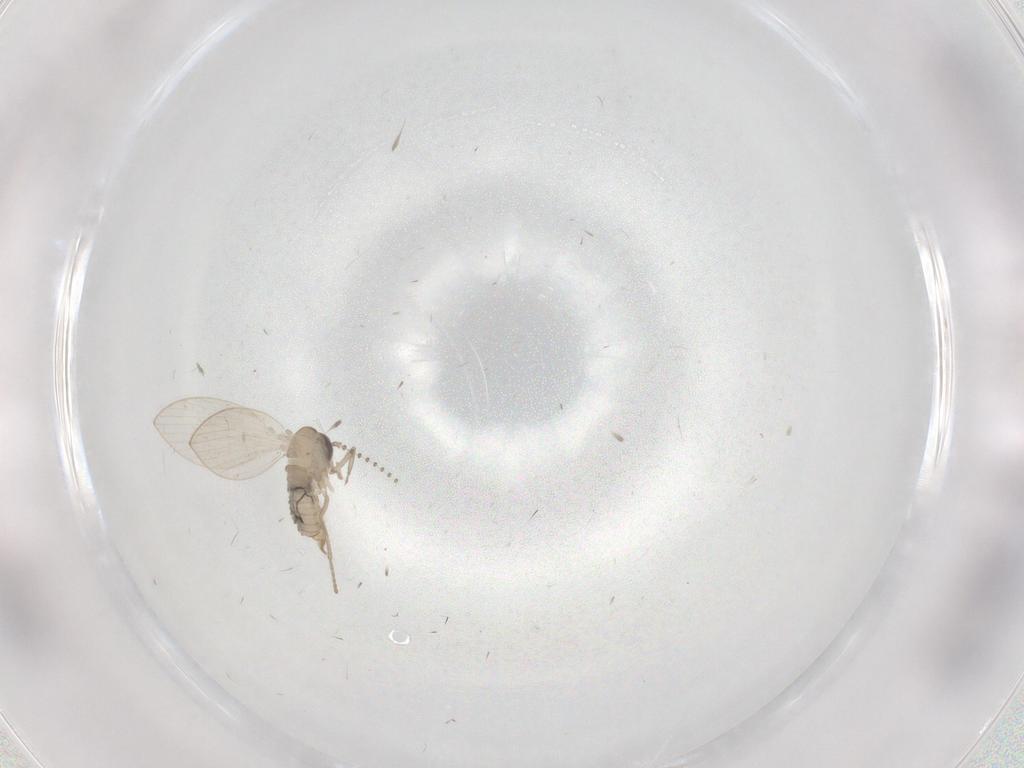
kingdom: Animalia
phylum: Arthropoda
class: Insecta
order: Diptera
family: Psychodidae
